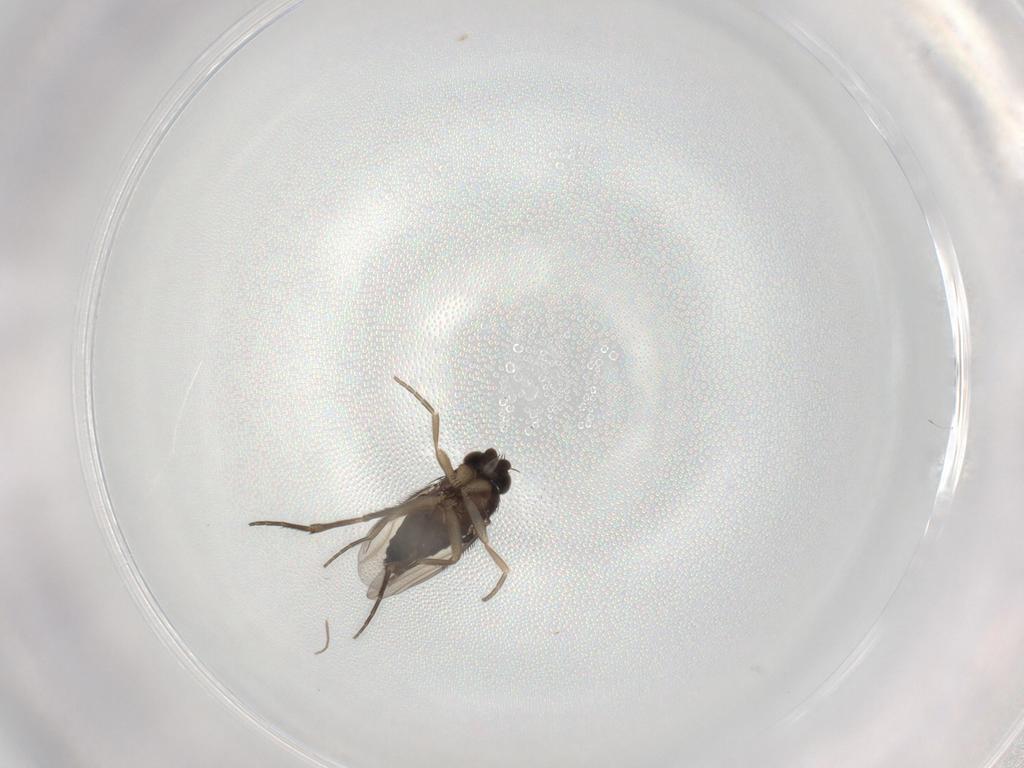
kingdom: Animalia
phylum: Arthropoda
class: Insecta
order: Diptera
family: Phoridae
